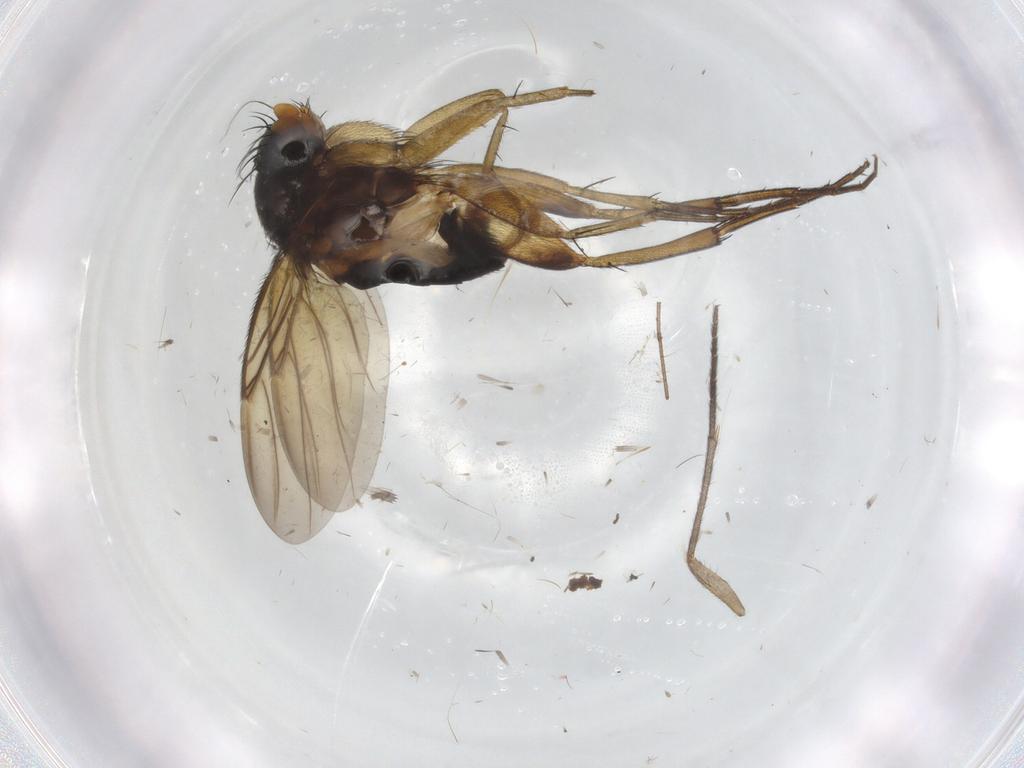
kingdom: Animalia
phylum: Arthropoda
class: Insecta
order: Diptera
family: Phoridae
